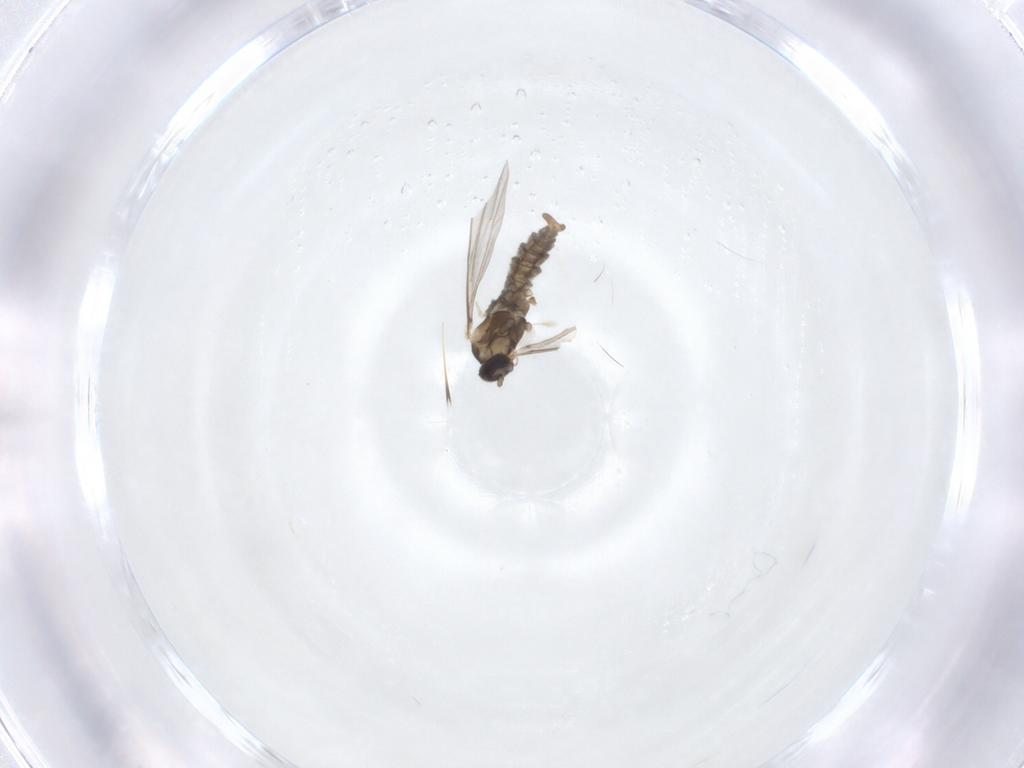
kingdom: Animalia
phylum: Arthropoda
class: Insecta
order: Diptera
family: Cecidomyiidae
